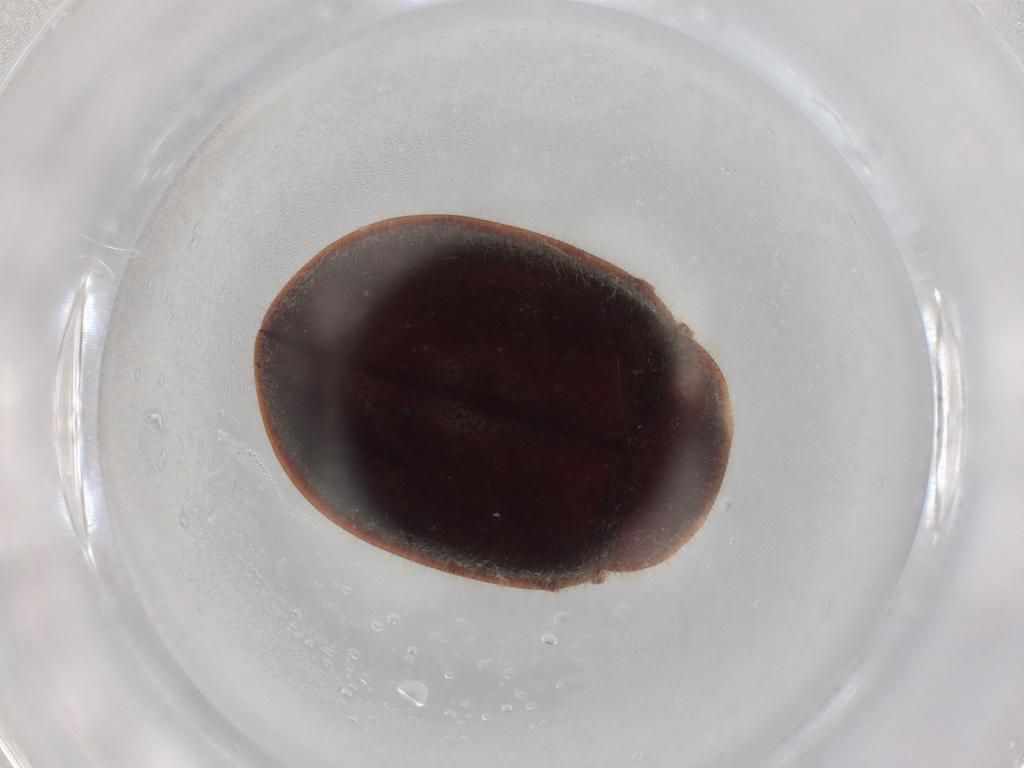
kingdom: Animalia
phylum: Arthropoda
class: Insecta
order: Coleoptera
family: Coccinellidae
